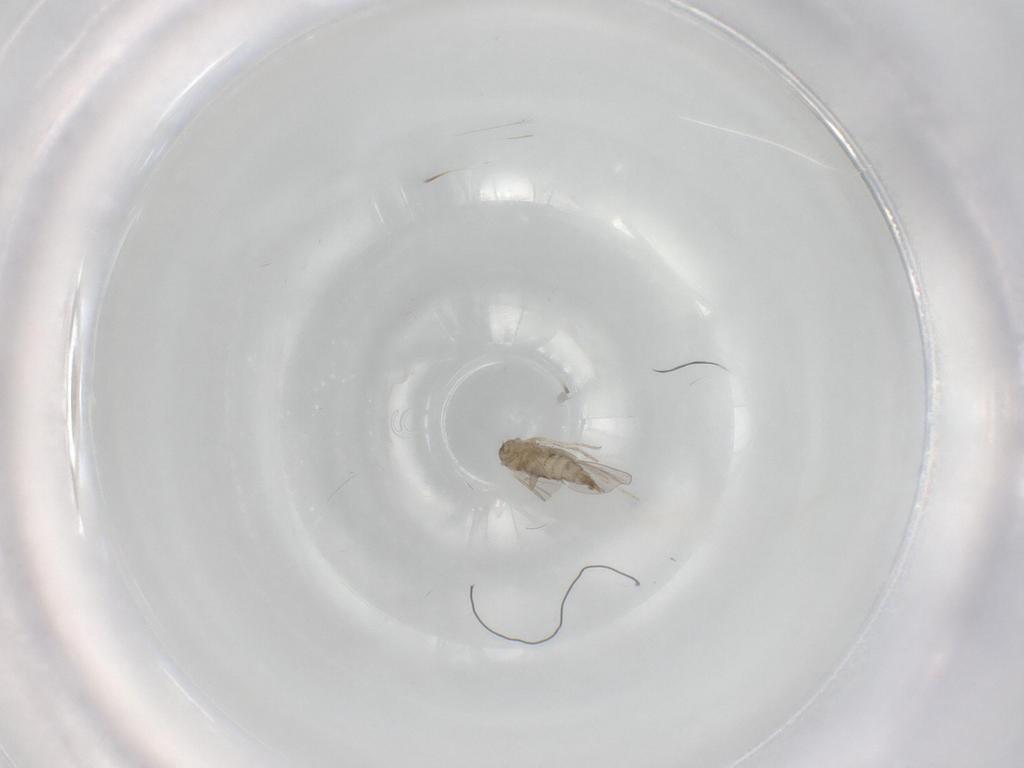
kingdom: Animalia
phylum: Arthropoda
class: Insecta
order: Diptera
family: Cecidomyiidae
